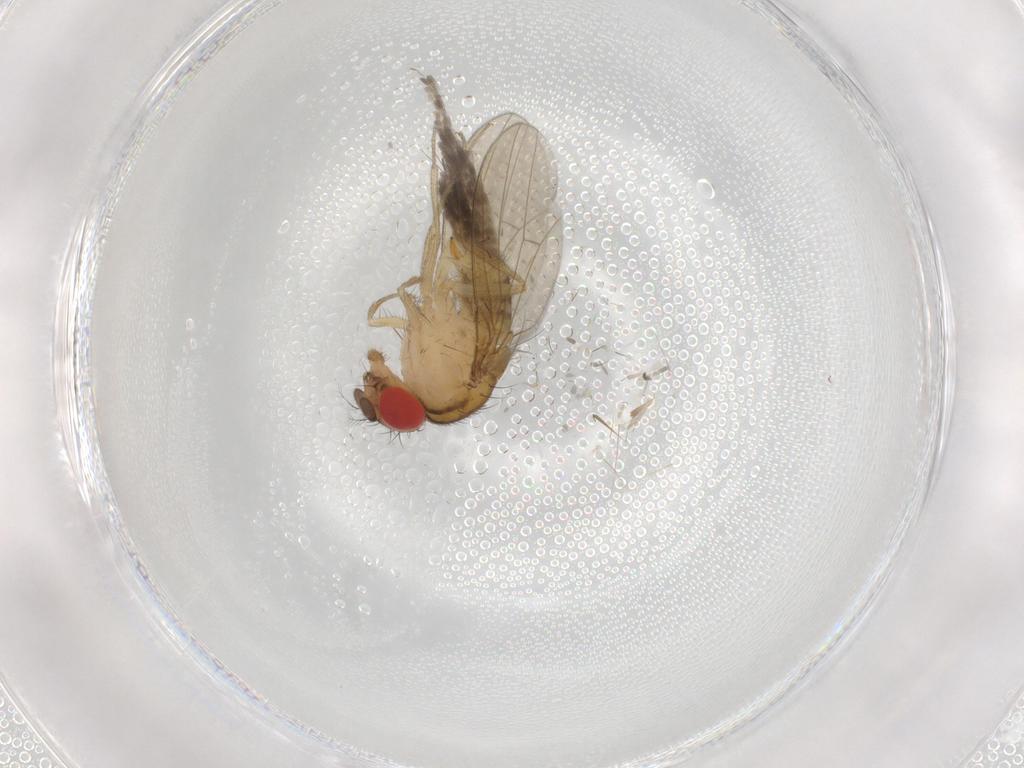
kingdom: Animalia
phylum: Arthropoda
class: Insecta
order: Diptera
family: Drosophilidae
